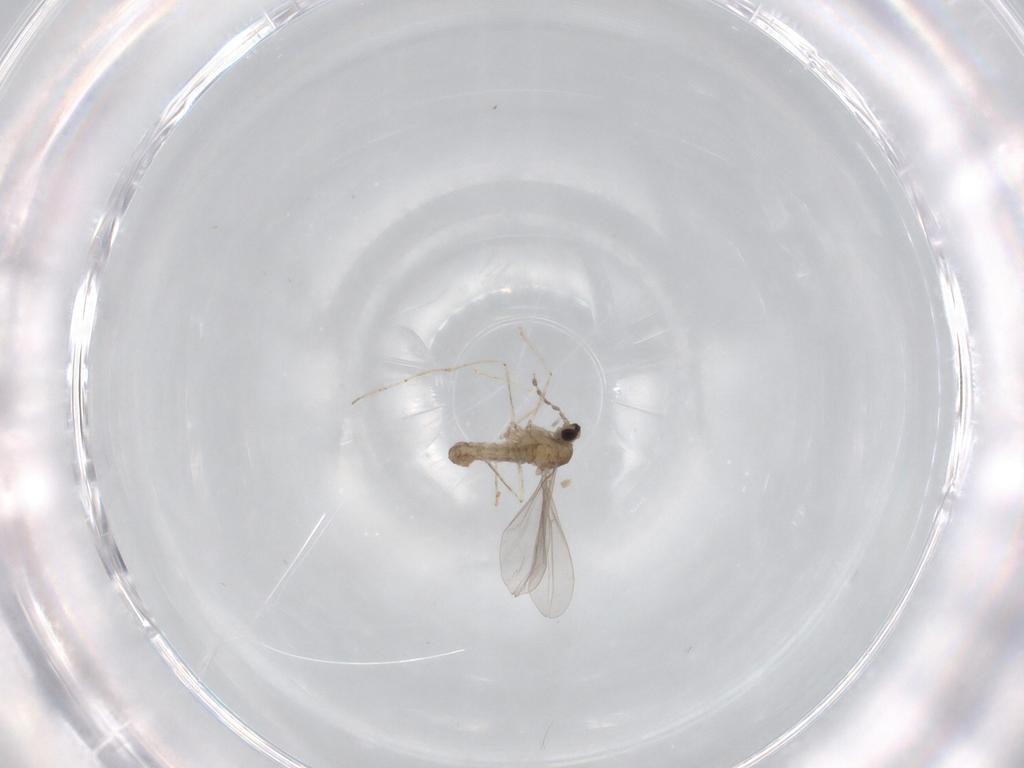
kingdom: Animalia
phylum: Arthropoda
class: Insecta
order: Diptera
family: Cecidomyiidae
